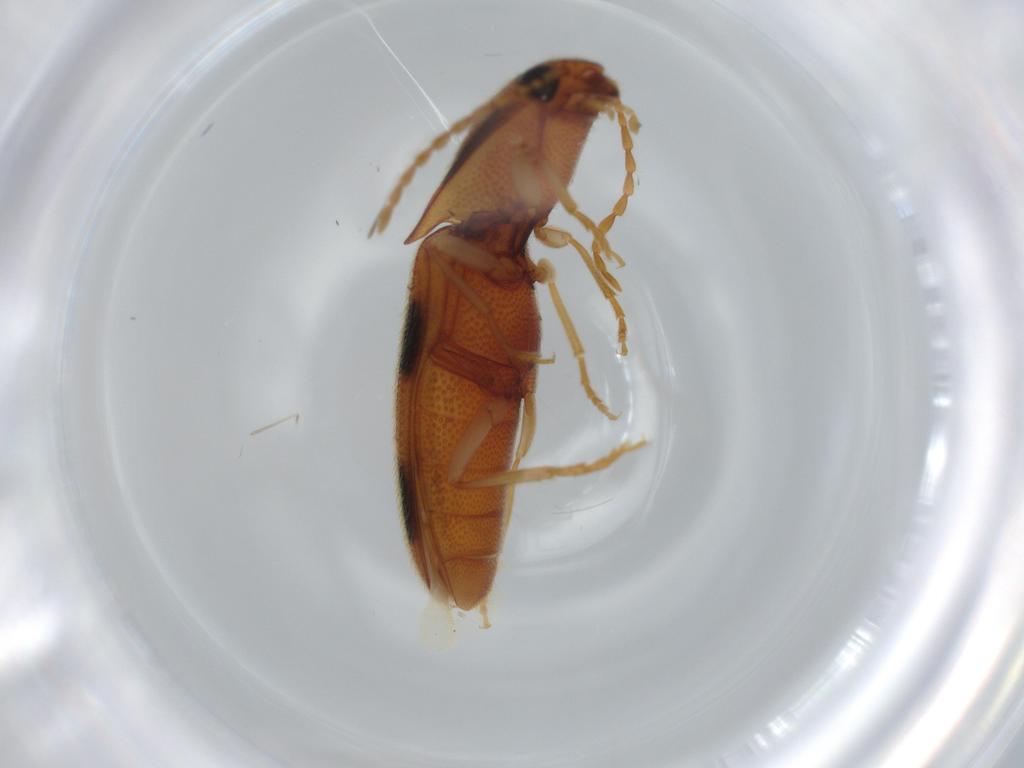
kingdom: Animalia
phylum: Arthropoda
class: Insecta
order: Coleoptera
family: Elateridae
